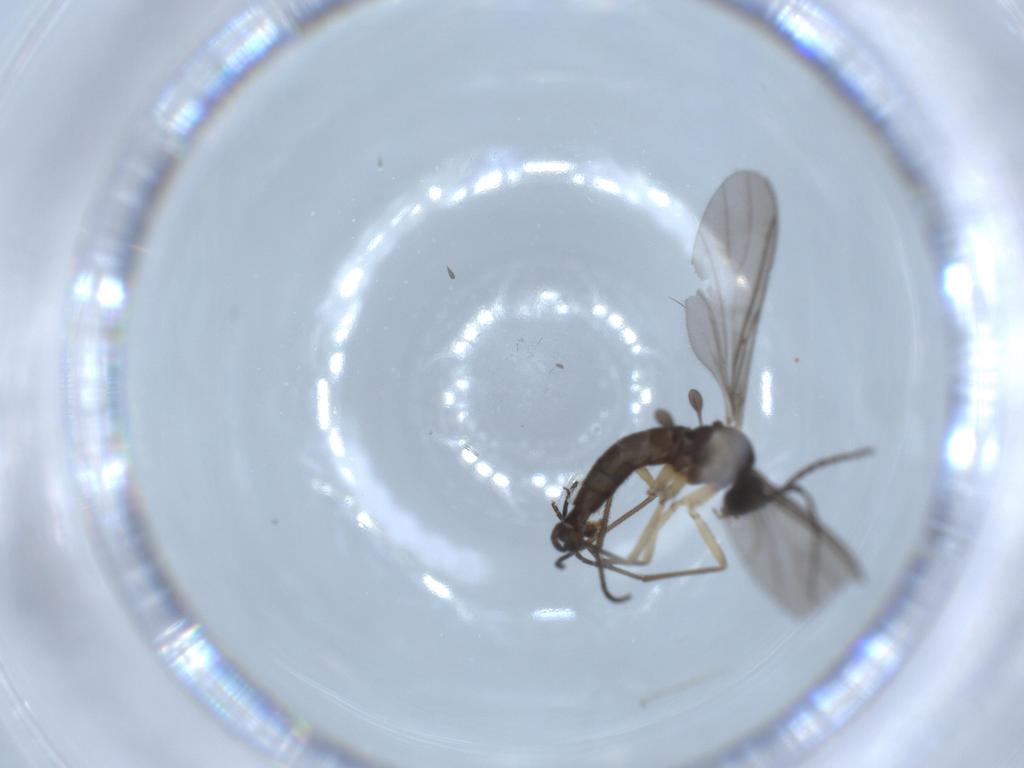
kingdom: Animalia
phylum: Arthropoda
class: Insecta
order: Diptera
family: Sciaridae
